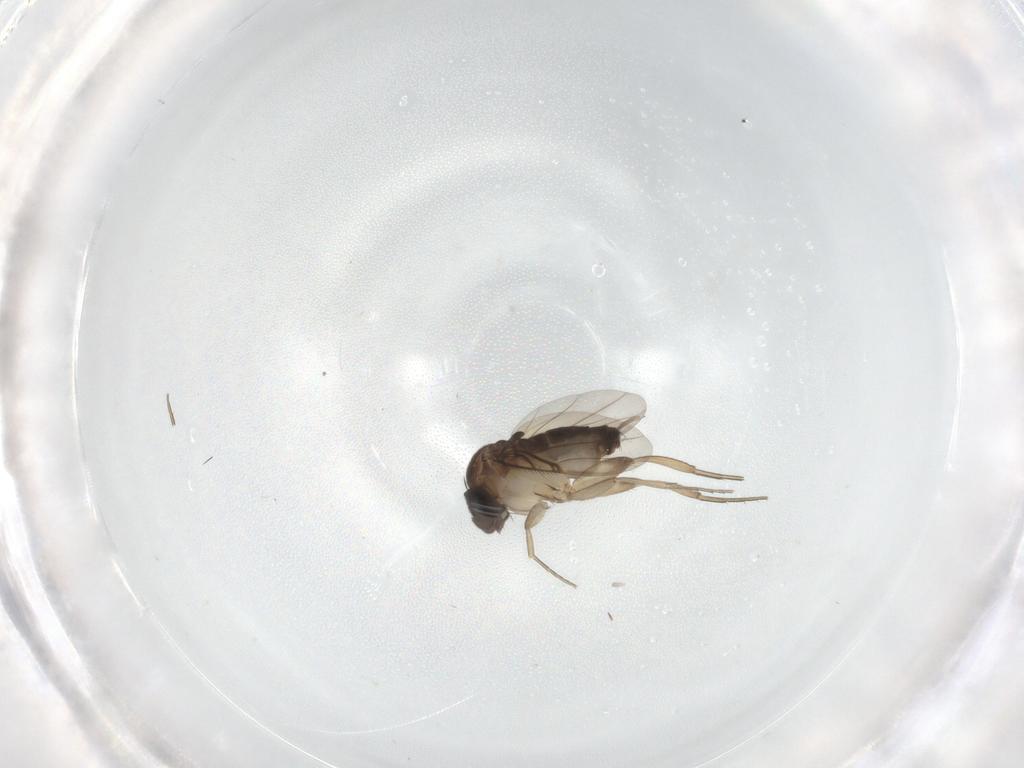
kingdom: Animalia
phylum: Arthropoda
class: Insecta
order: Diptera
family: Phoridae
